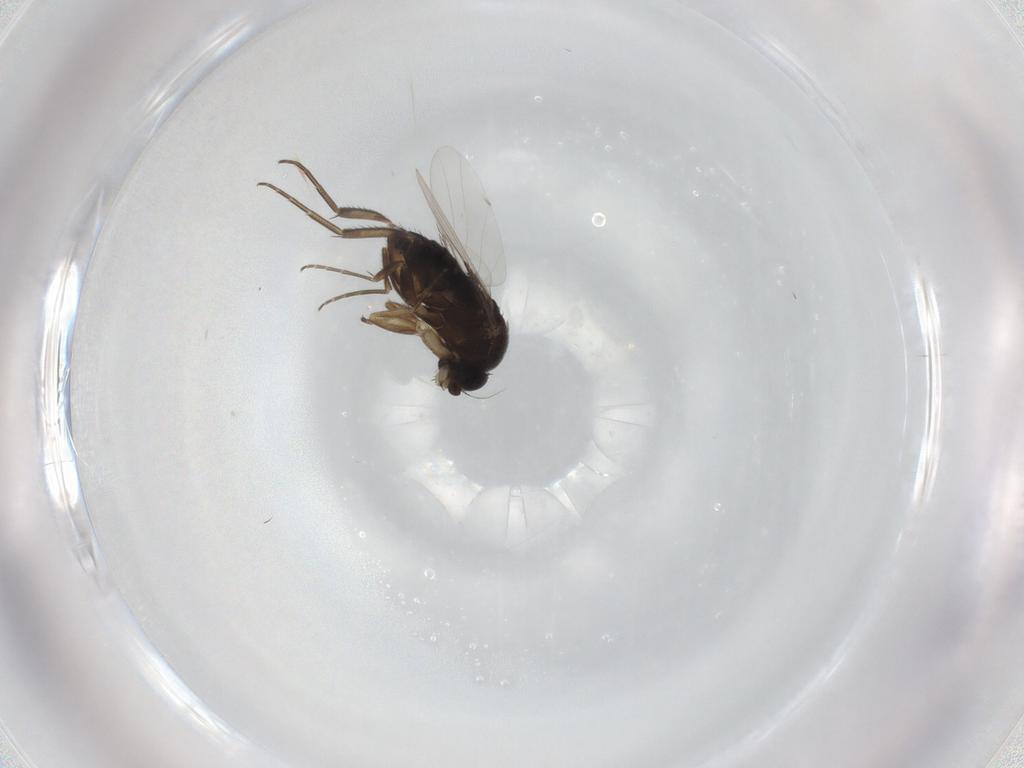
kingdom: Animalia
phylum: Arthropoda
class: Insecta
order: Diptera
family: Phoridae
